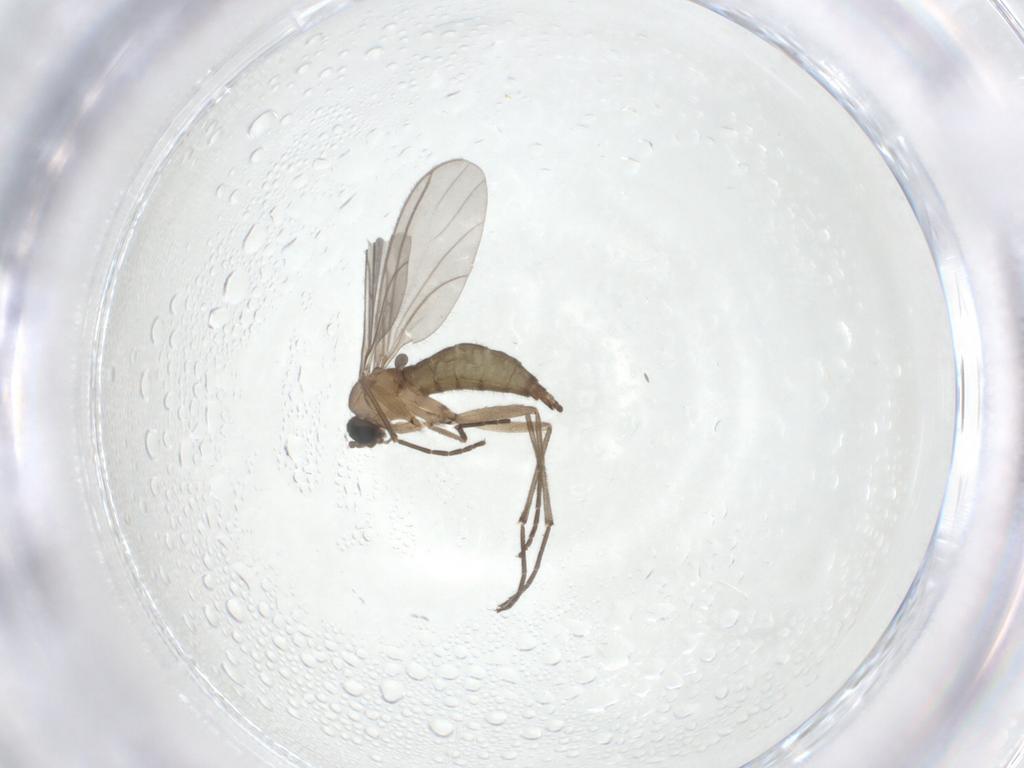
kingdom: Animalia
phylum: Arthropoda
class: Insecta
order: Diptera
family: Sciaridae
